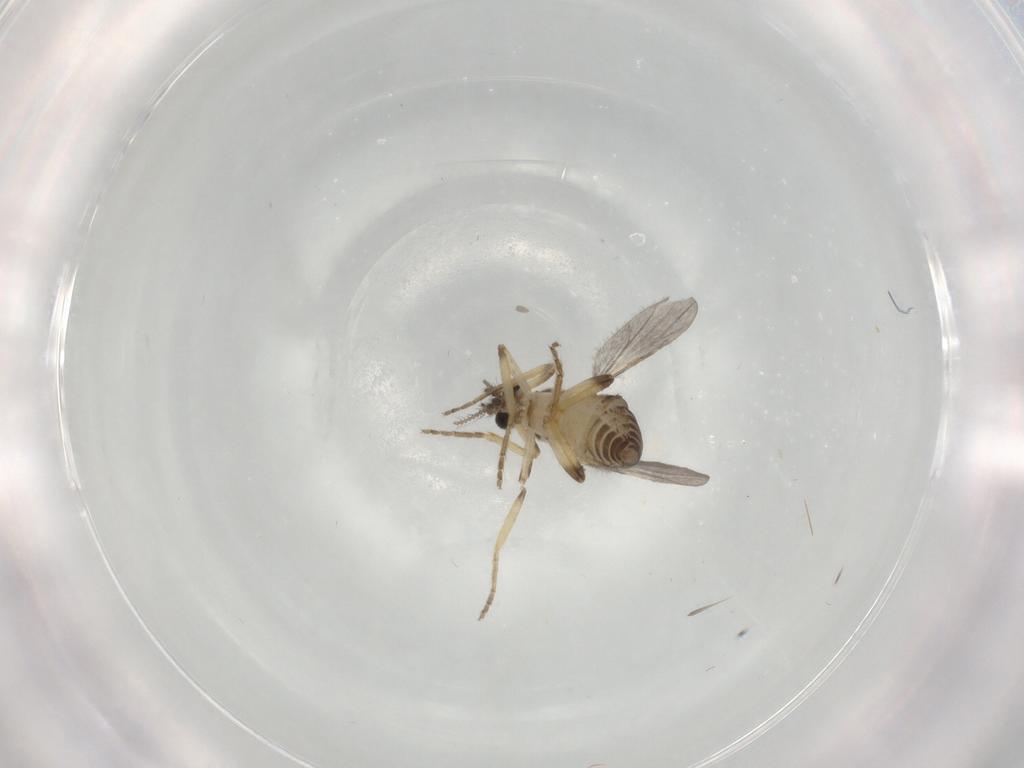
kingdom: Animalia
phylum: Arthropoda
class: Insecta
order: Diptera
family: Ceratopogonidae
